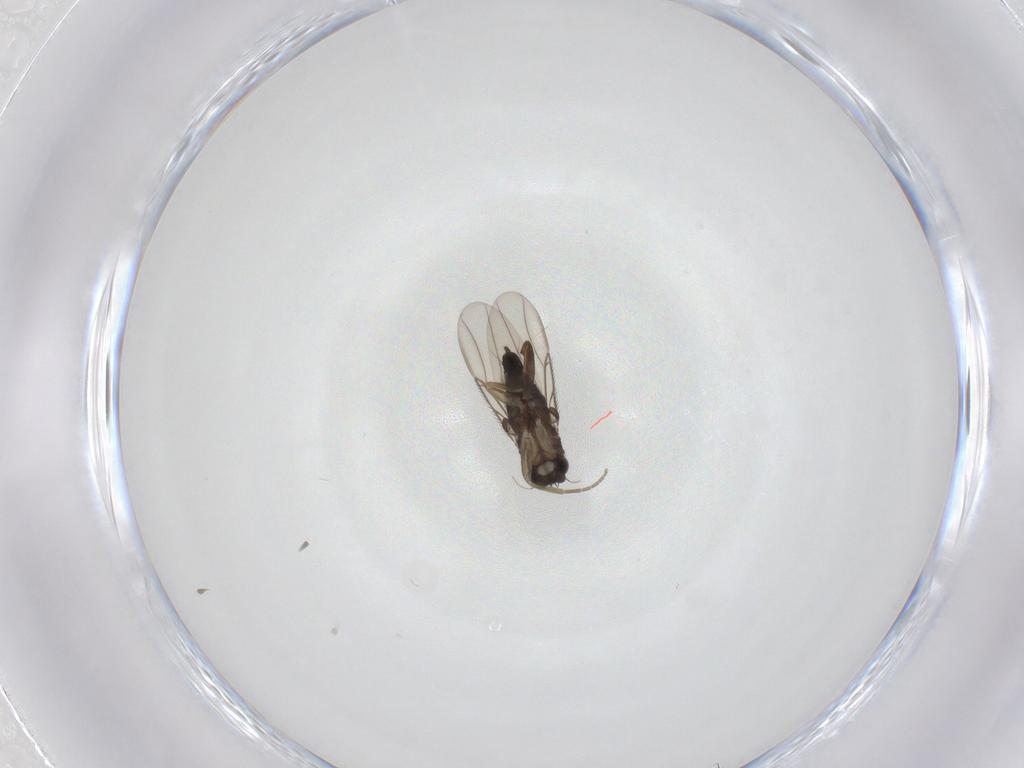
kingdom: Animalia
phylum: Arthropoda
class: Insecta
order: Diptera
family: Phoridae
